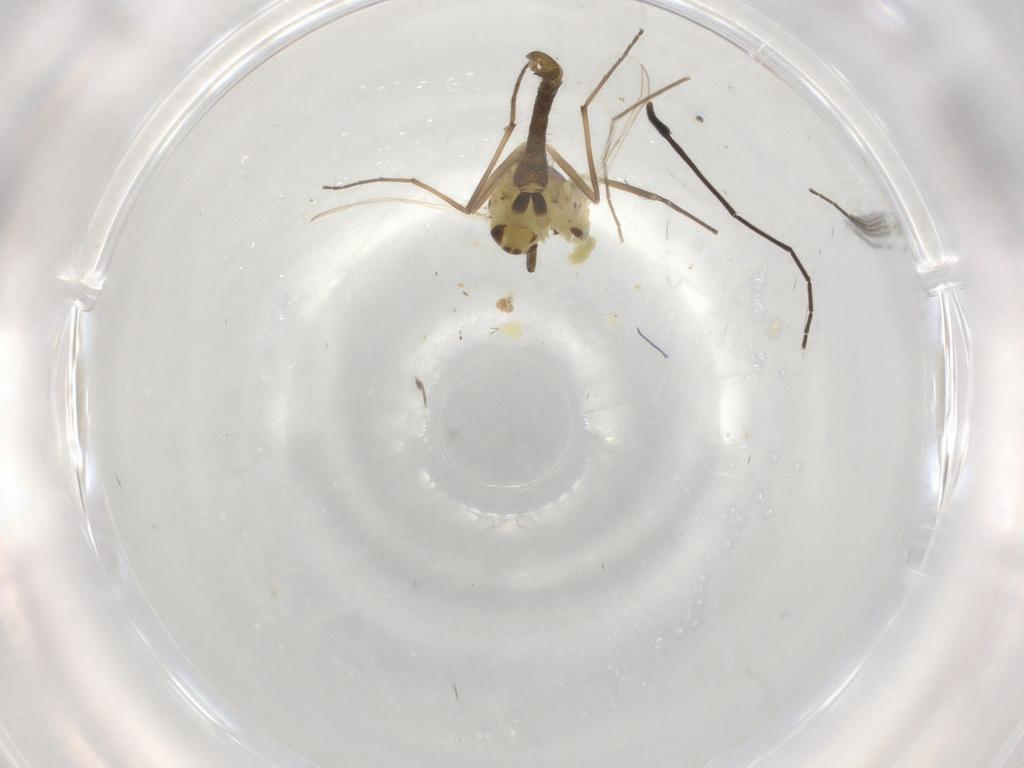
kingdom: Animalia
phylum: Arthropoda
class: Insecta
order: Diptera
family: Chironomidae
